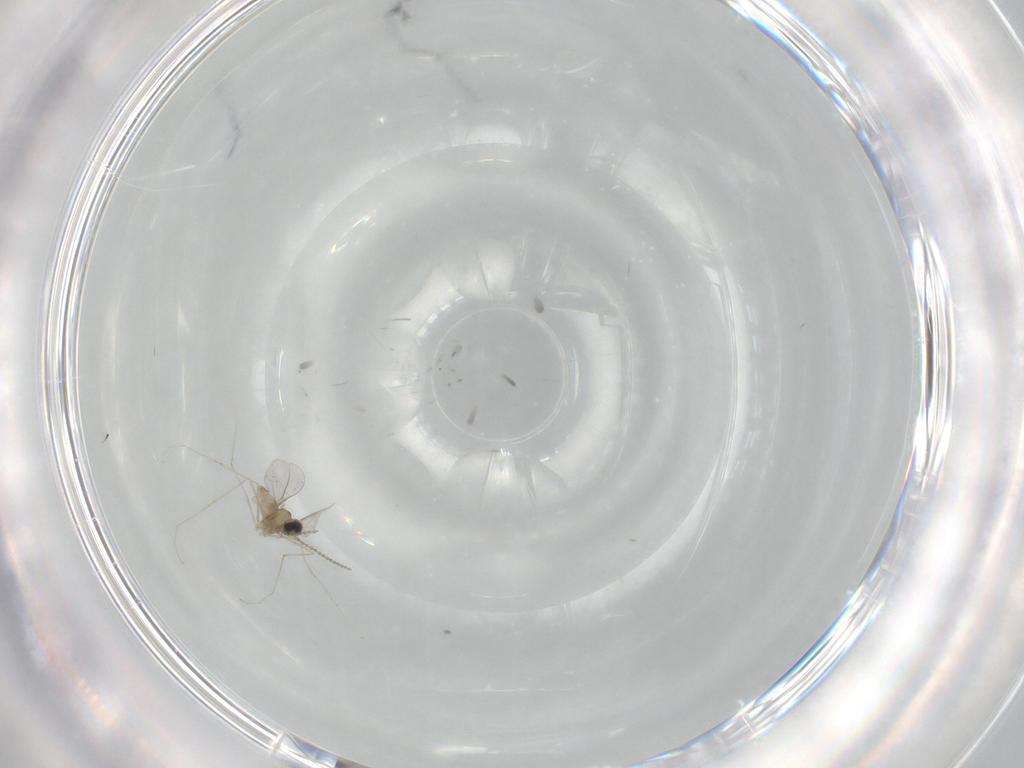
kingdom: Animalia
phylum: Arthropoda
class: Insecta
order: Diptera
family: Cecidomyiidae
